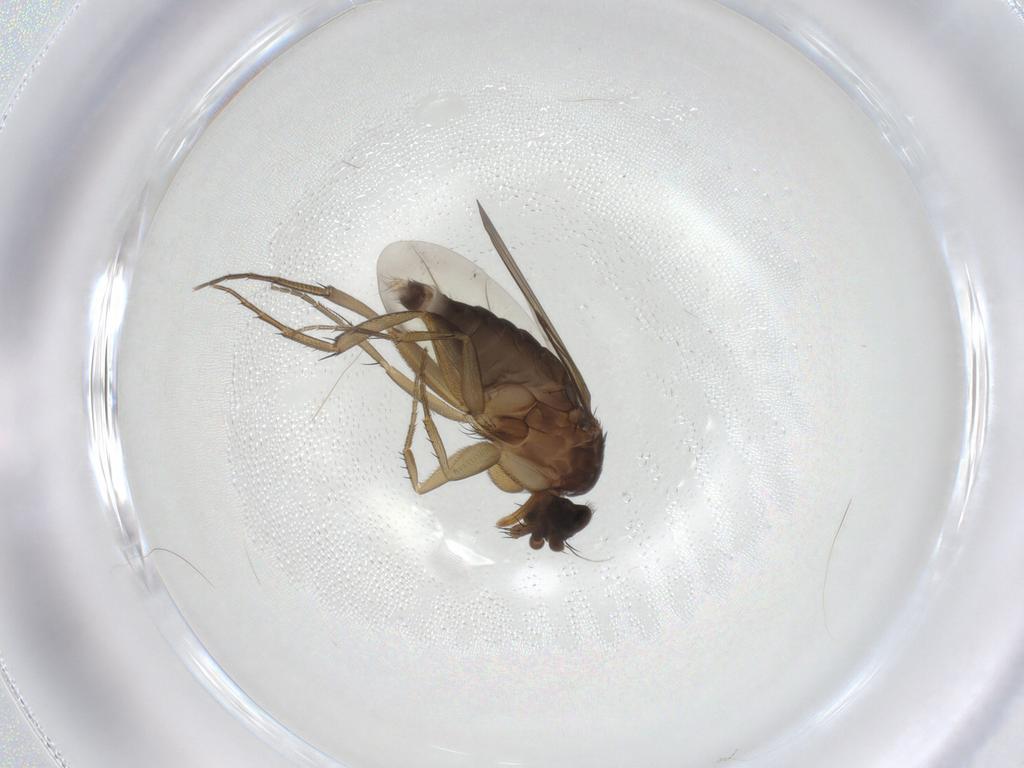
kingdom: Animalia
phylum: Arthropoda
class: Insecta
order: Diptera
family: Phoridae
